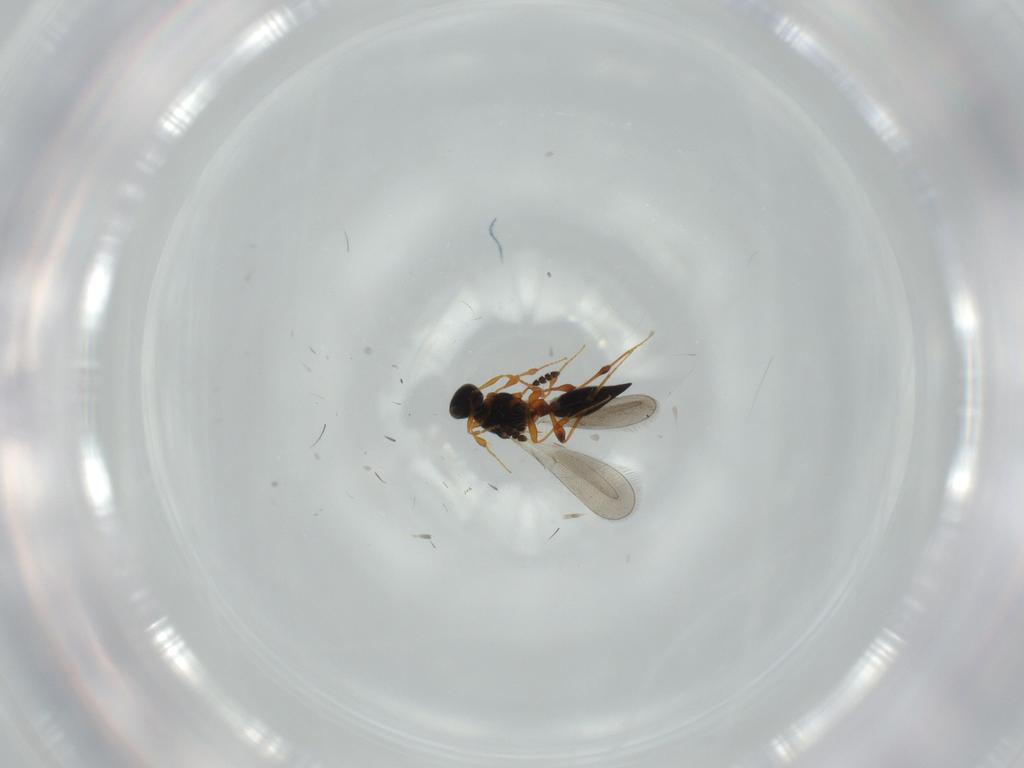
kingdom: Animalia
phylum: Arthropoda
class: Insecta
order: Hymenoptera
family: Platygastridae
